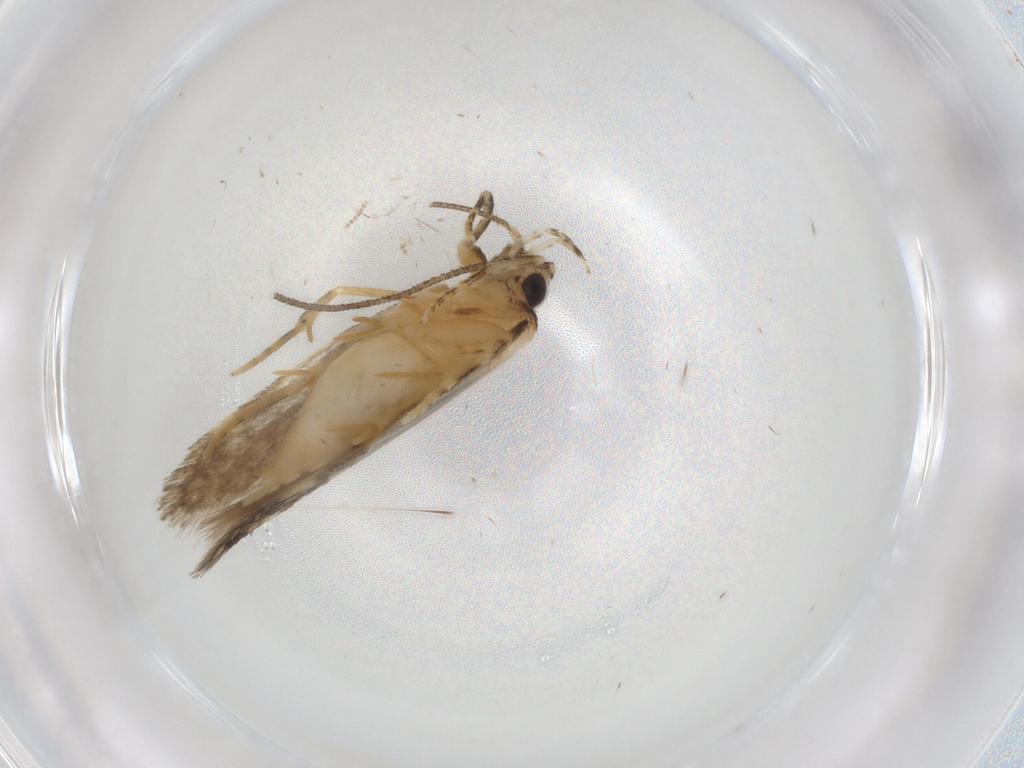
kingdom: Animalia
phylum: Arthropoda
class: Insecta
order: Lepidoptera
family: Autostichidae
